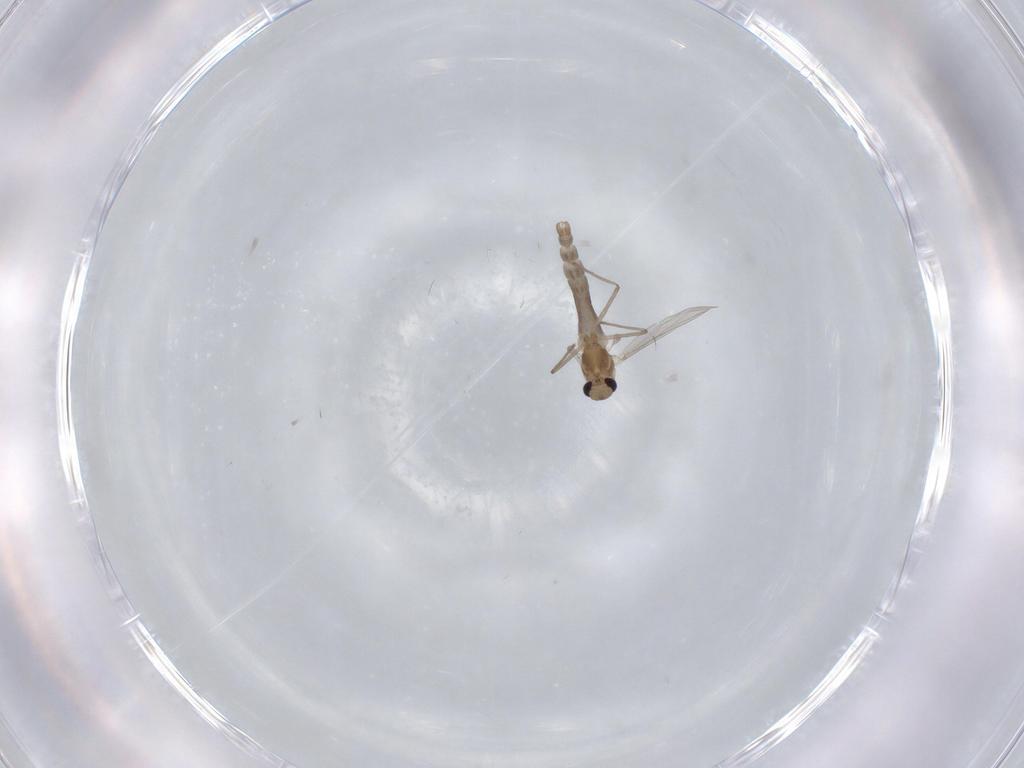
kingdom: Animalia
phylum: Arthropoda
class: Insecta
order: Diptera
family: Chironomidae
